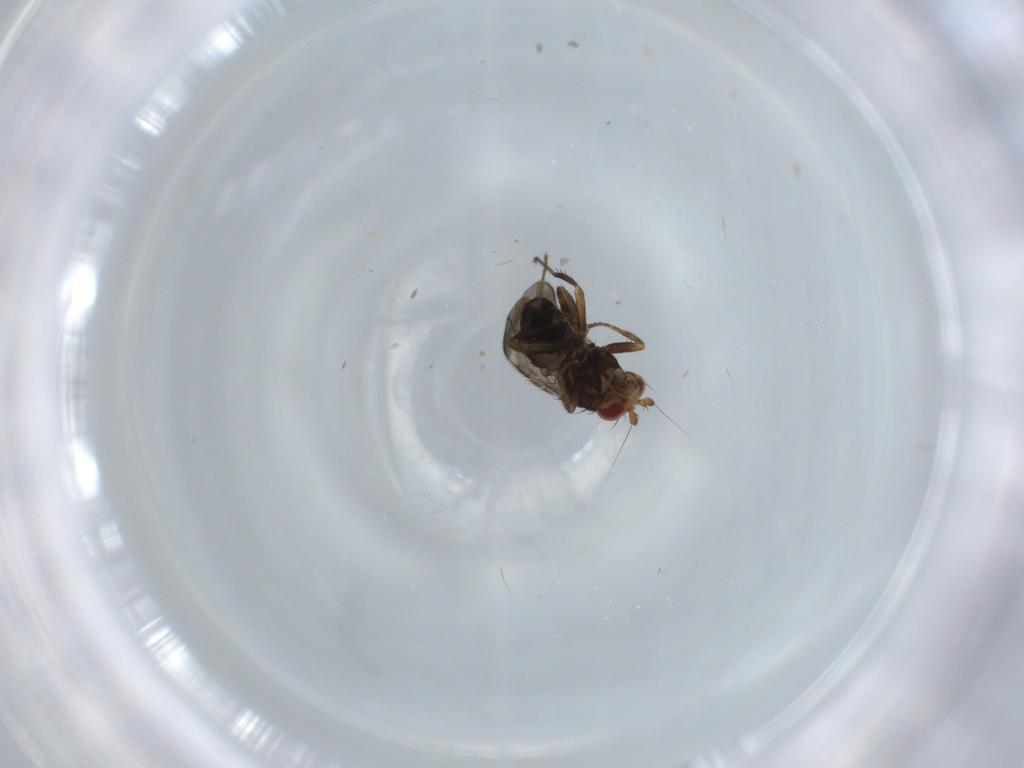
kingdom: Animalia
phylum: Arthropoda
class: Insecta
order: Diptera
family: Cecidomyiidae
